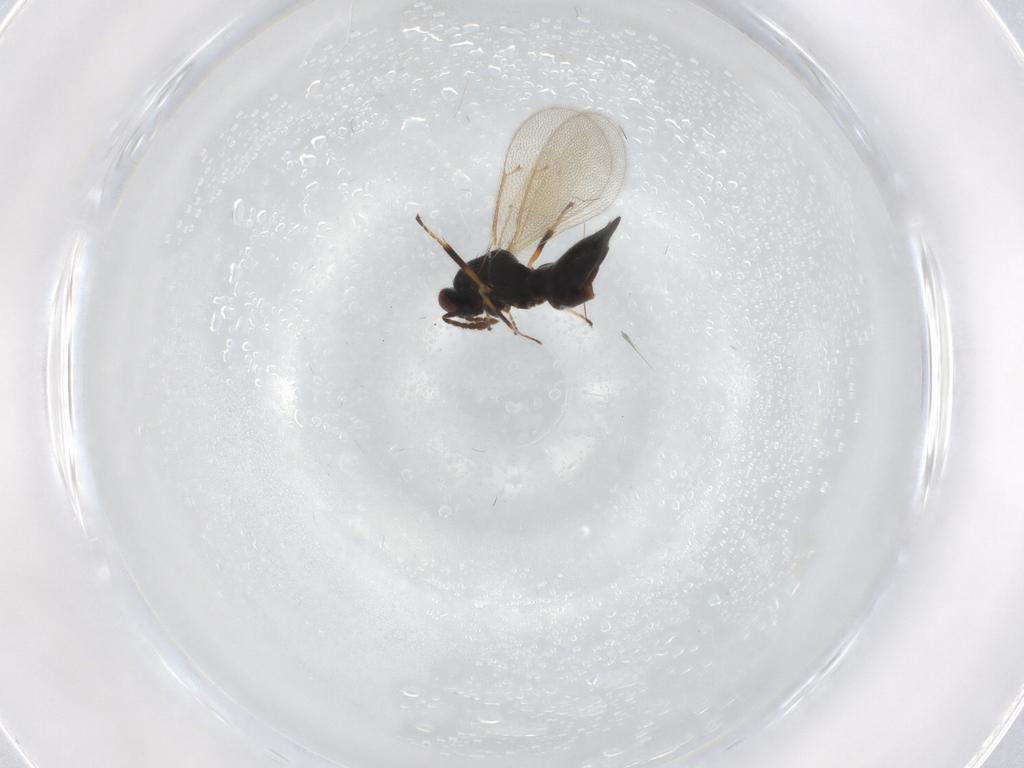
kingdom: Animalia
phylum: Arthropoda
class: Insecta
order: Hymenoptera
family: Eulophidae
